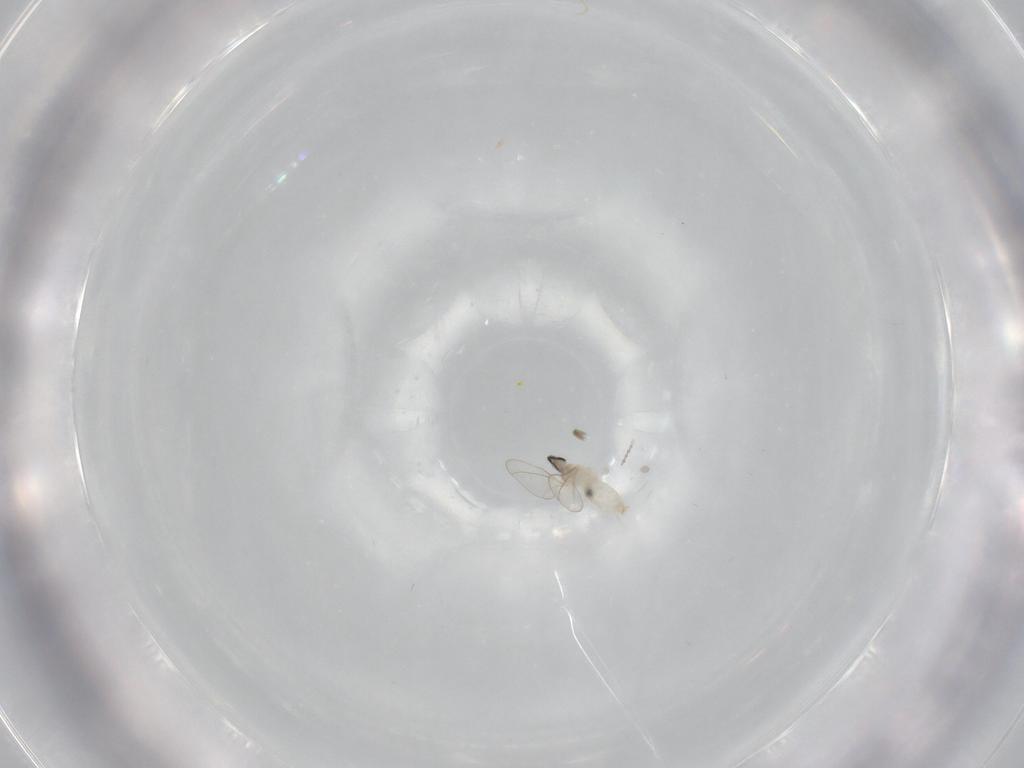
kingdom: Animalia
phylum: Arthropoda
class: Insecta
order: Diptera
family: Cecidomyiidae
